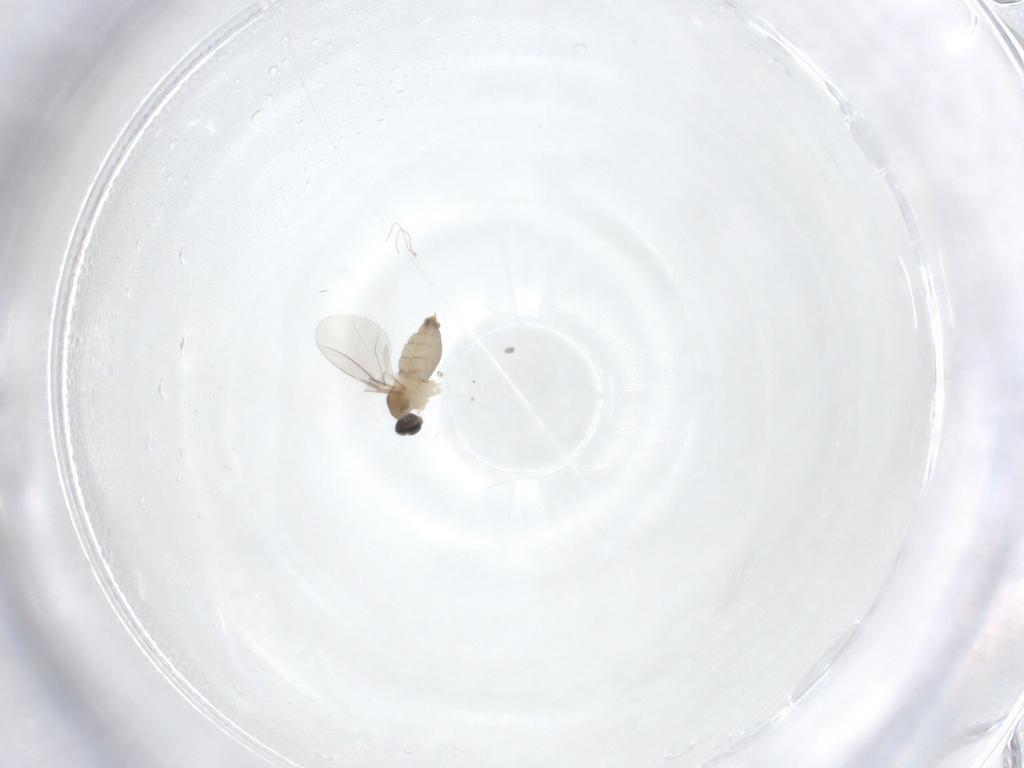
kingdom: Animalia
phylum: Arthropoda
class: Insecta
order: Diptera
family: Cecidomyiidae
